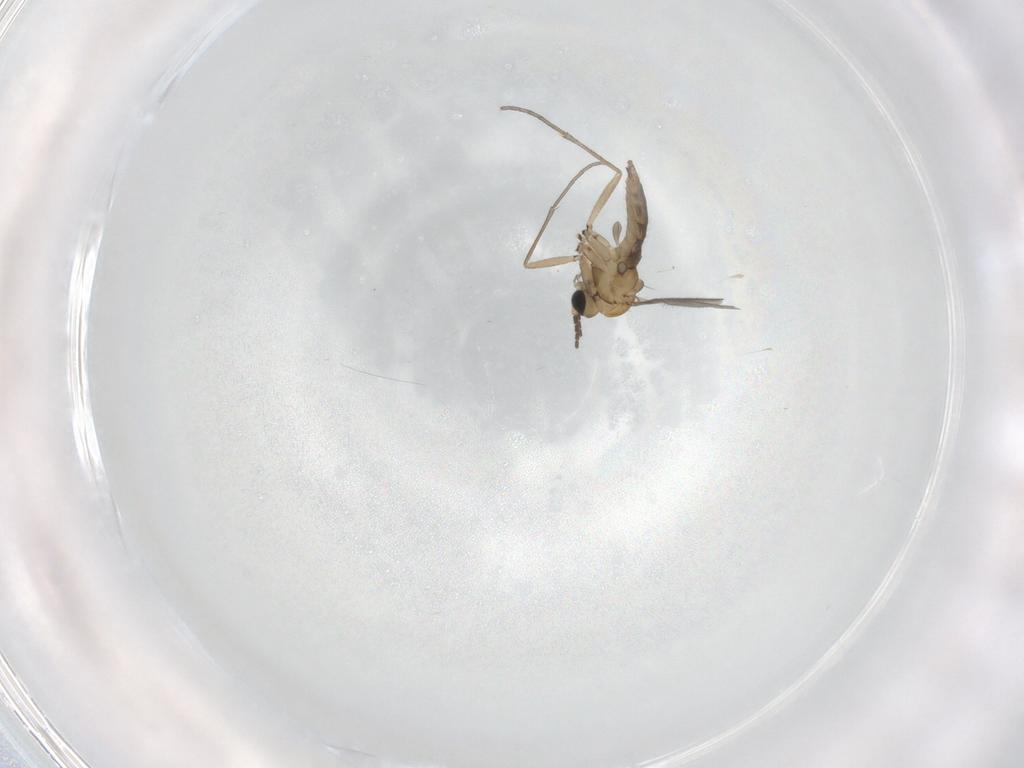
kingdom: Animalia
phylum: Arthropoda
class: Insecta
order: Diptera
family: Sciaridae
